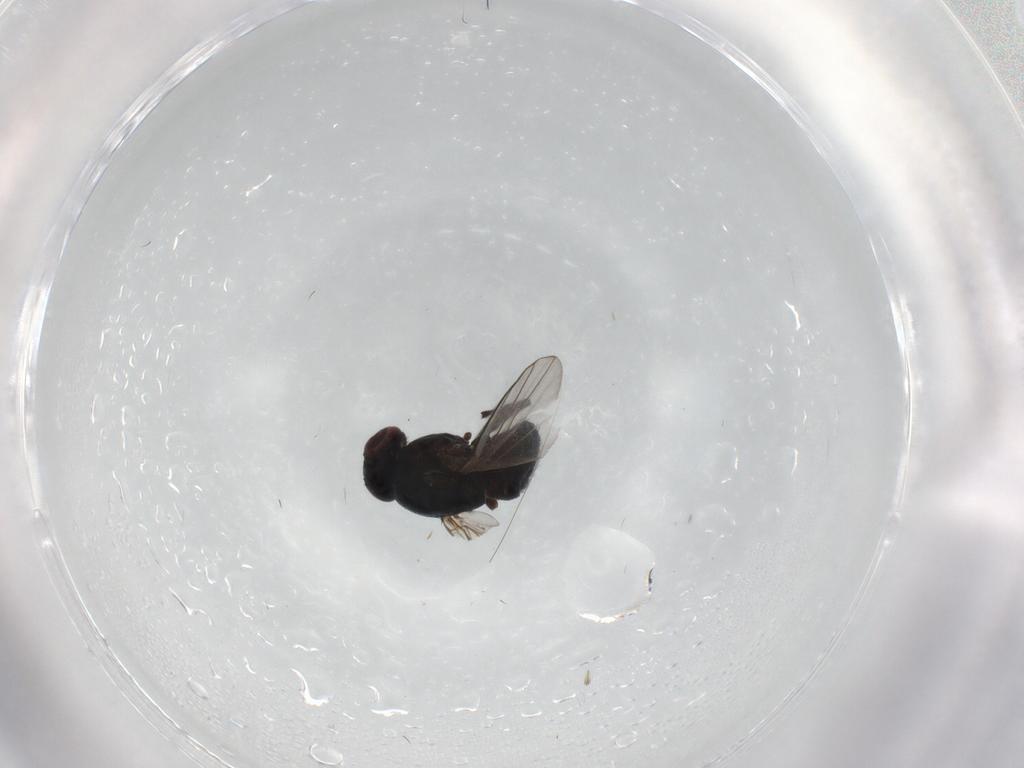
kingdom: Animalia
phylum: Arthropoda
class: Insecta
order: Diptera
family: Agromyzidae
